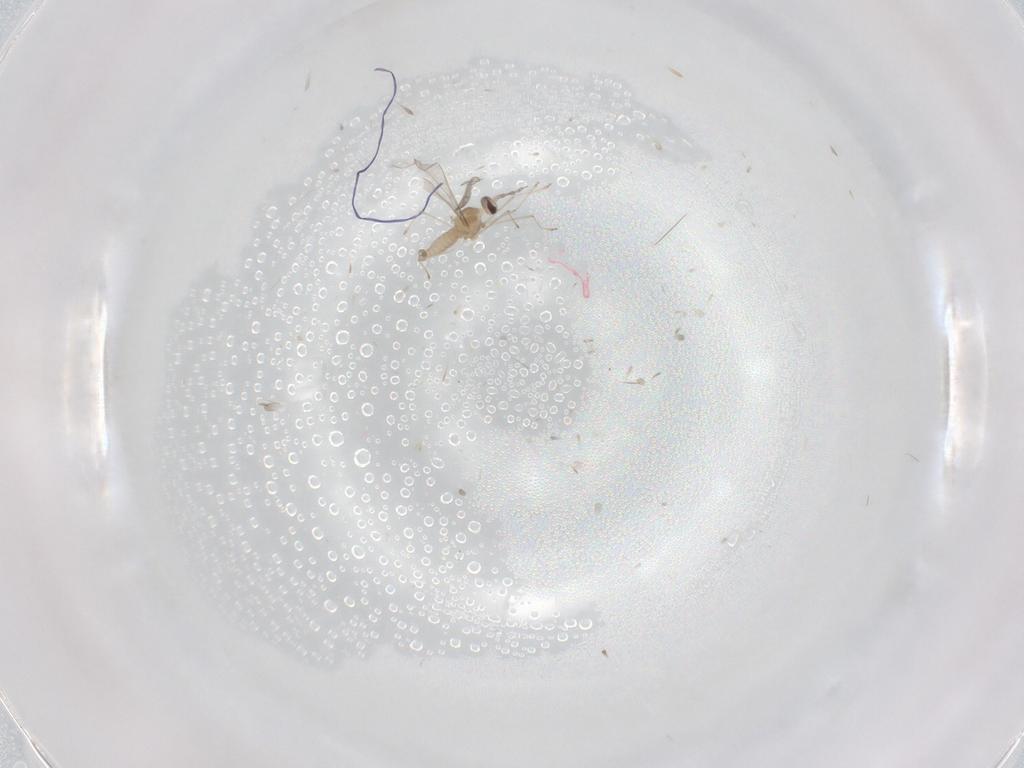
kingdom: Animalia
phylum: Arthropoda
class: Insecta
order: Diptera
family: Cecidomyiidae
